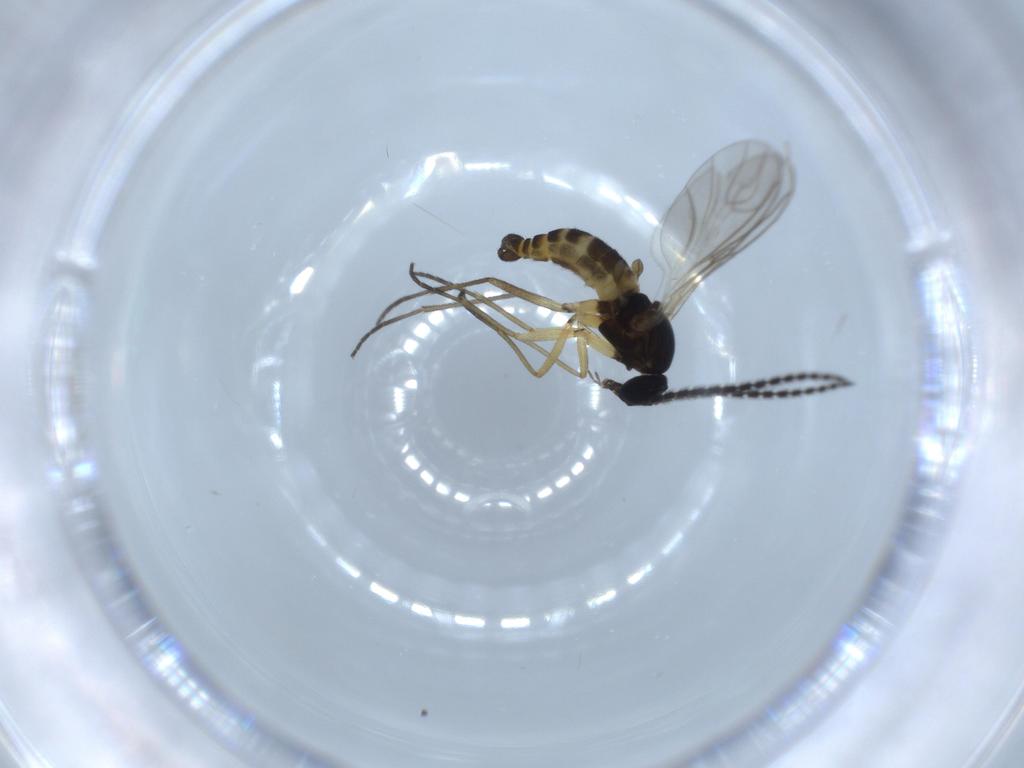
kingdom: Animalia
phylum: Arthropoda
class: Insecta
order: Diptera
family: Sciaridae
